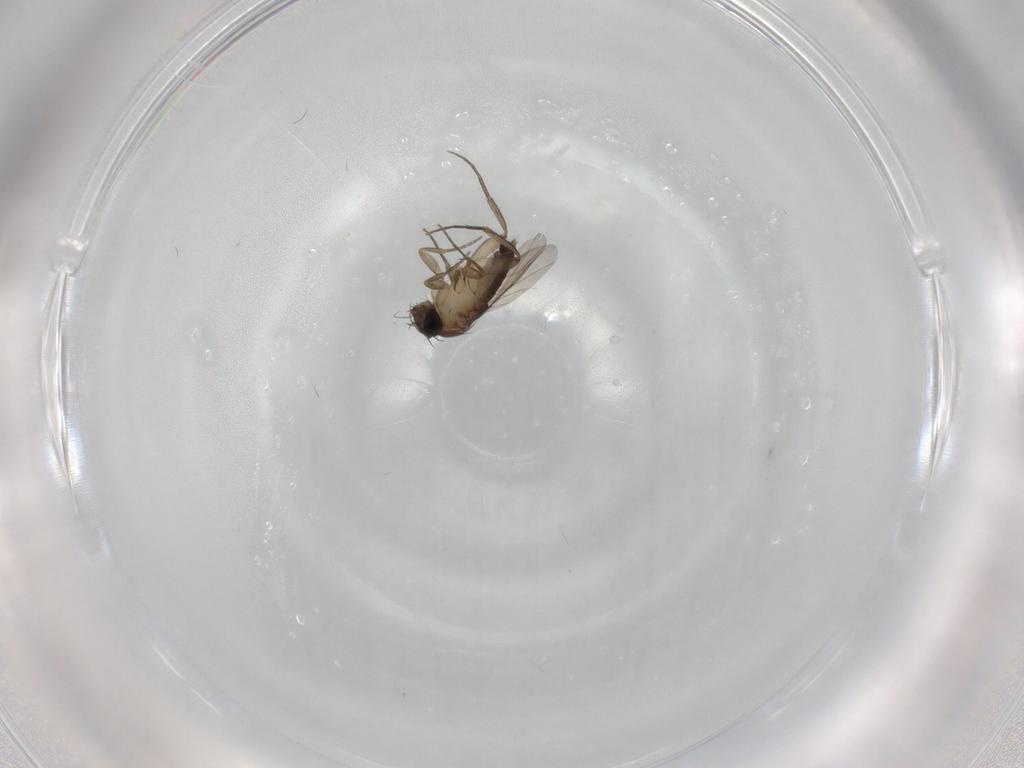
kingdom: Animalia
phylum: Arthropoda
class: Insecta
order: Diptera
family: Phoridae
